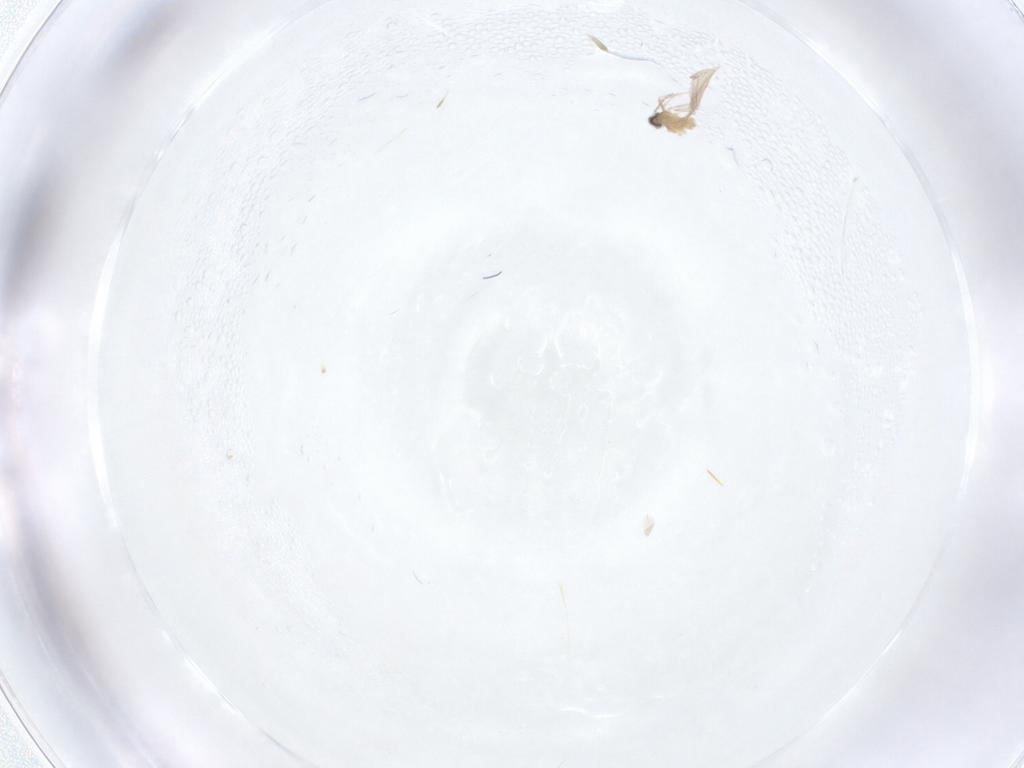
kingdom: Animalia
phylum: Arthropoda
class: Insecta
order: Diptera
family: Cecidomyiidae
